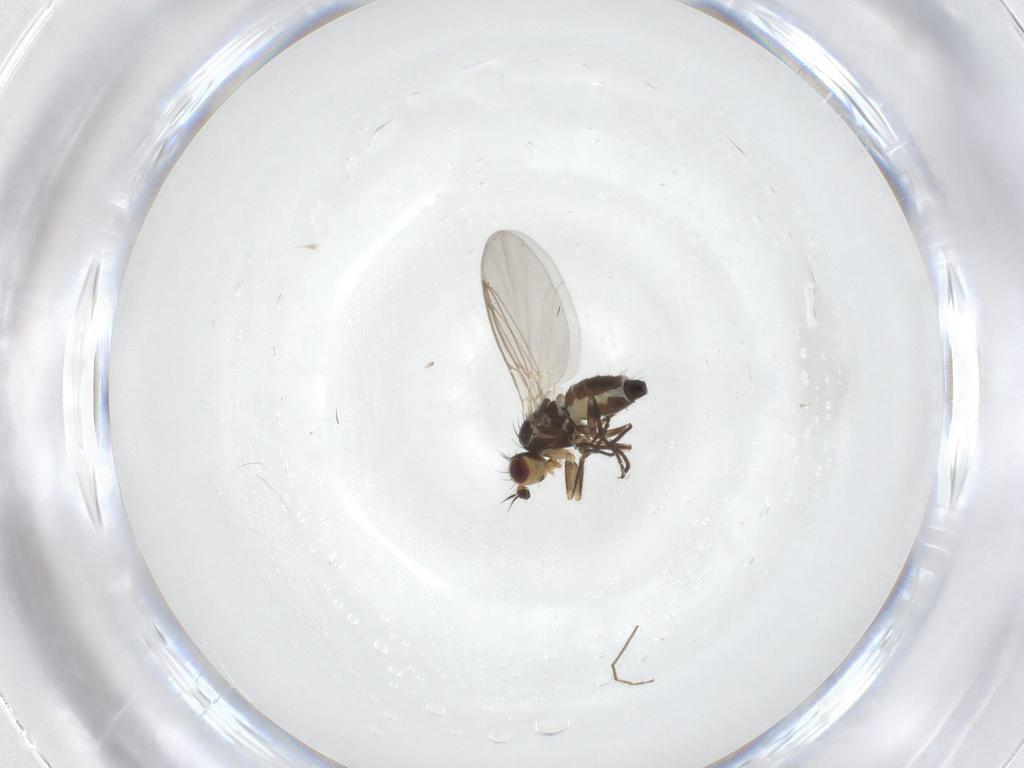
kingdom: Animalia
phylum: Arthropoda
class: Insecta
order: Diptera
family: Phoridae
